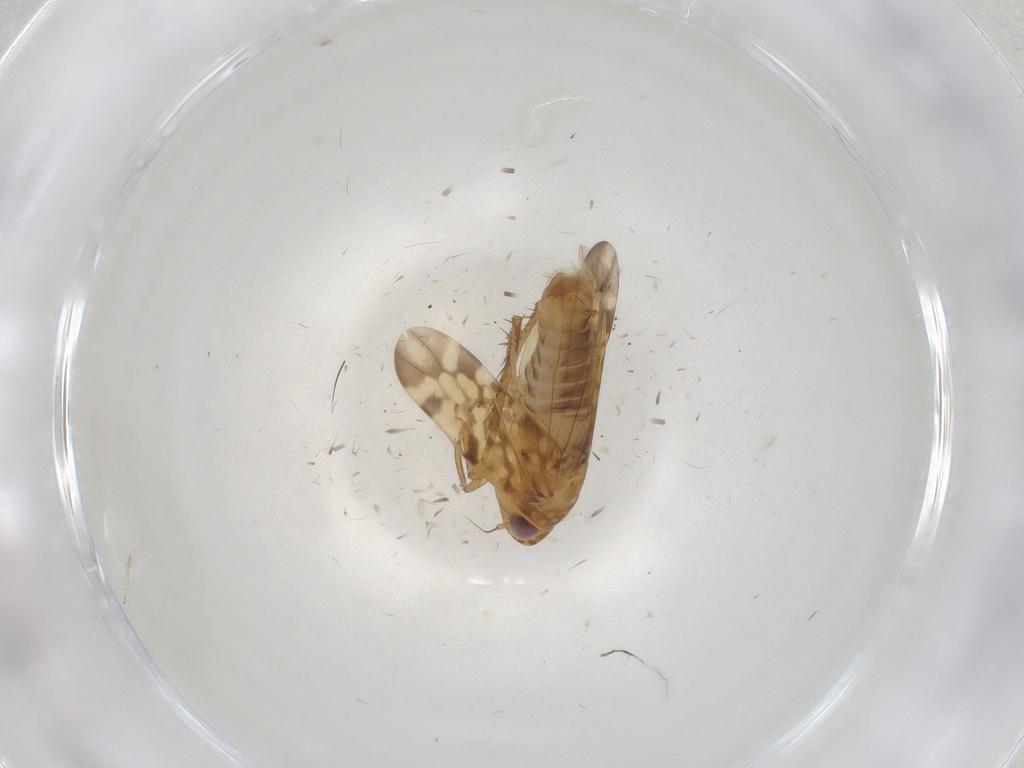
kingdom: Animalia
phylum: Arthropoda
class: Insecta
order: Hemiptera
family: Cicadellidae
